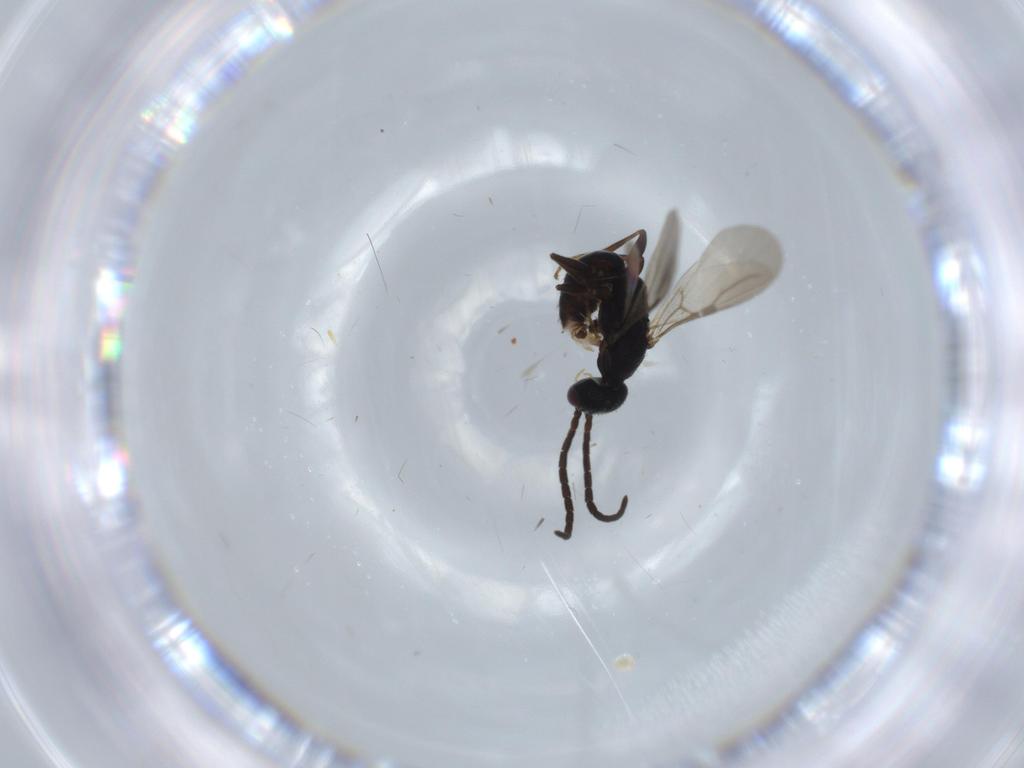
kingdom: Animalia
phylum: Arthropoda
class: Insecta
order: Hymenoptera
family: Bethylidae
